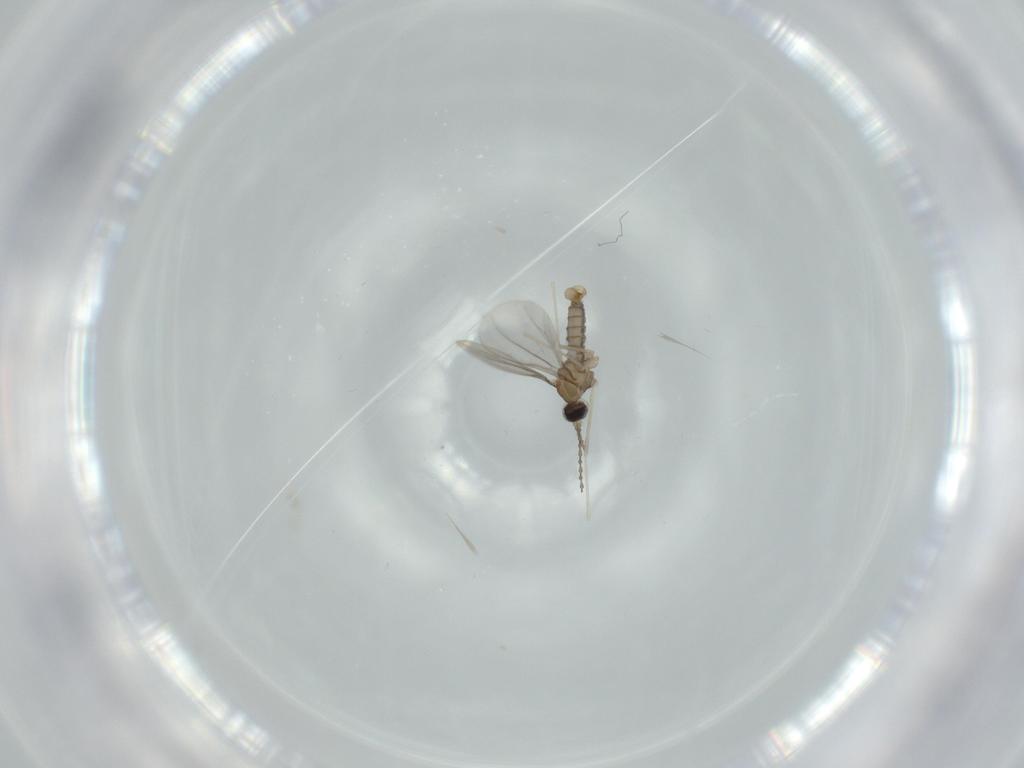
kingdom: Animalia
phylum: Arthropoda
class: Insecta
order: Diptera
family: Cecidomyiidae
